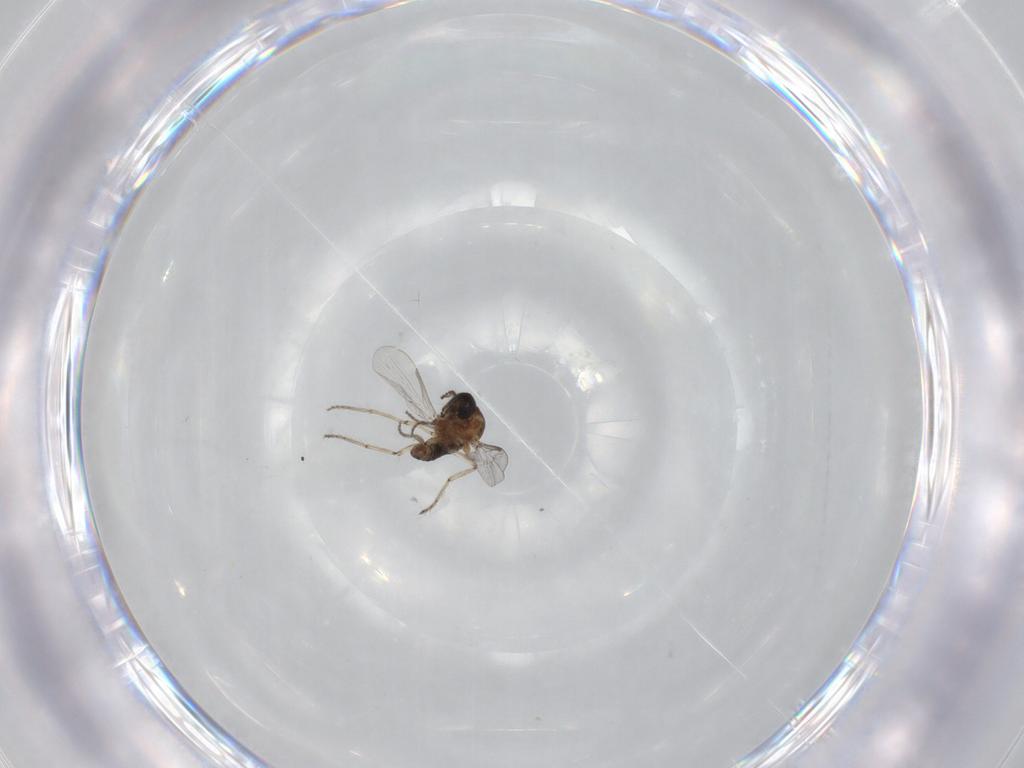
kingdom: Animalia
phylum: Arthropoda
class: Insecta
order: Diptera
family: Ceratopogonidae
